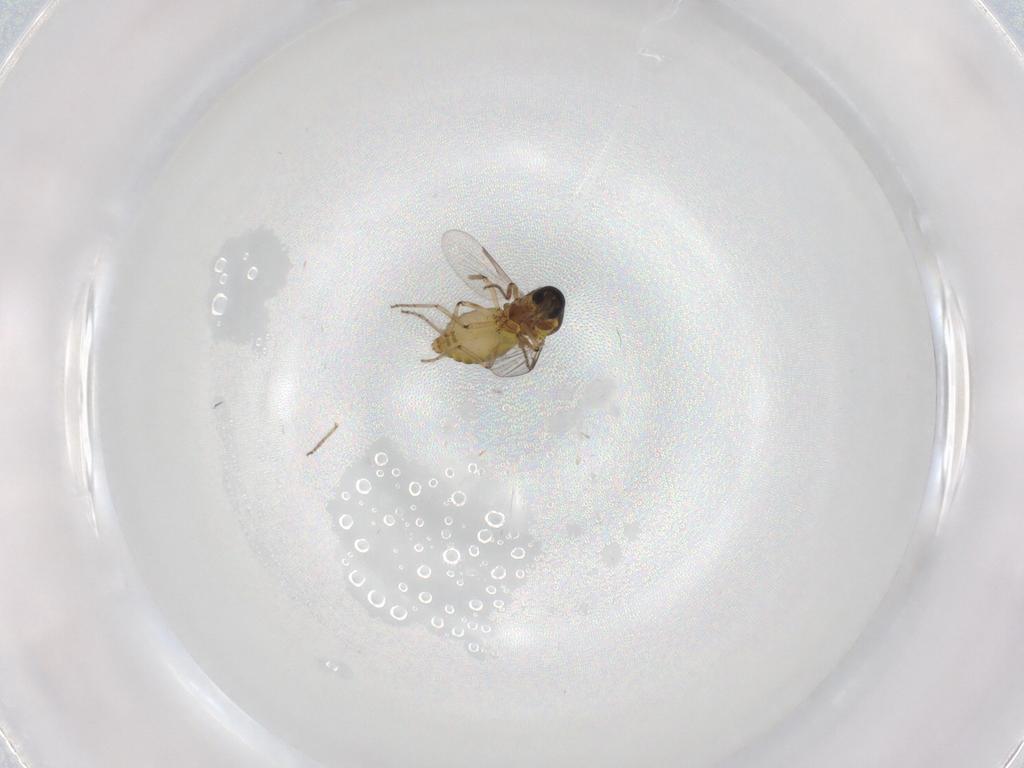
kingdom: Animalia
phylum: Arthropoda
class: Insecta
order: Diptera
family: Ceratopogonidae
